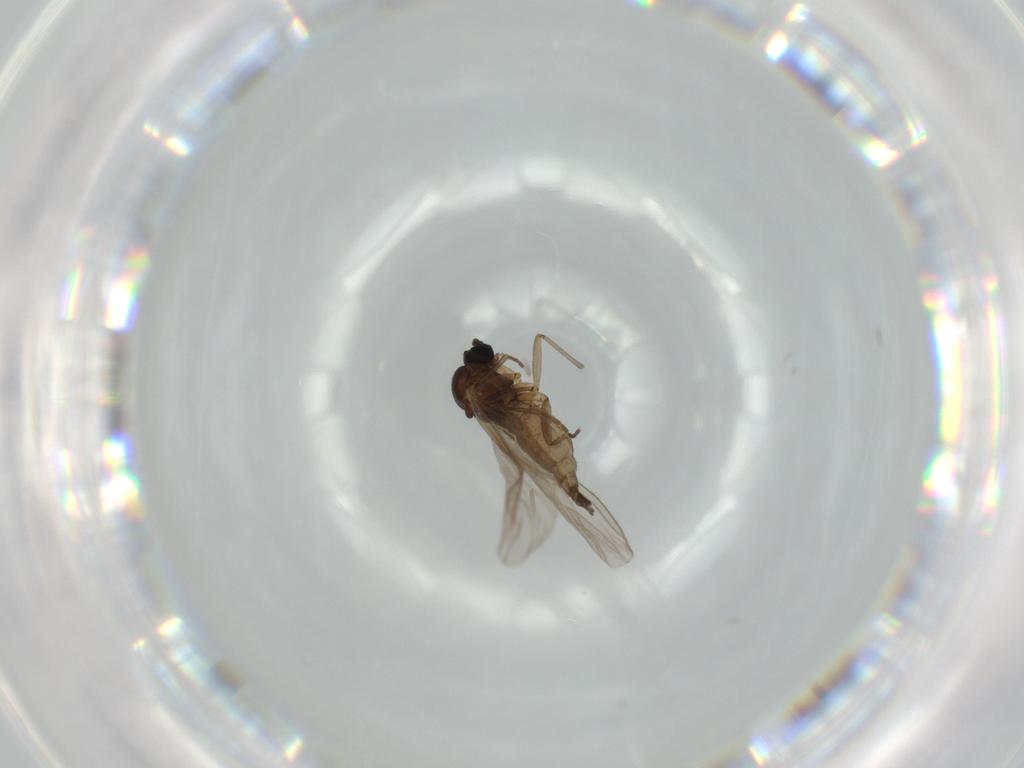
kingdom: Animalia
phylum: Arthropoda
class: Insecta
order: Diptera
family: Sciaridae
